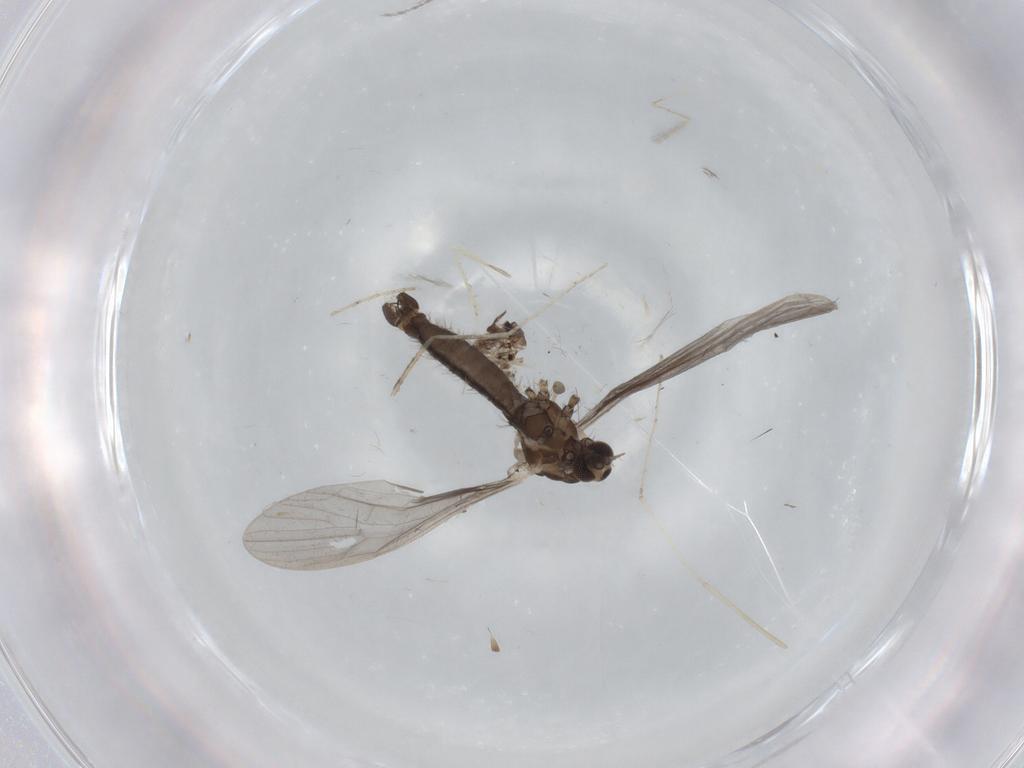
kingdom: Animalia
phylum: Arthropoda
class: Insecta
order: Diptera
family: Limoniidae
